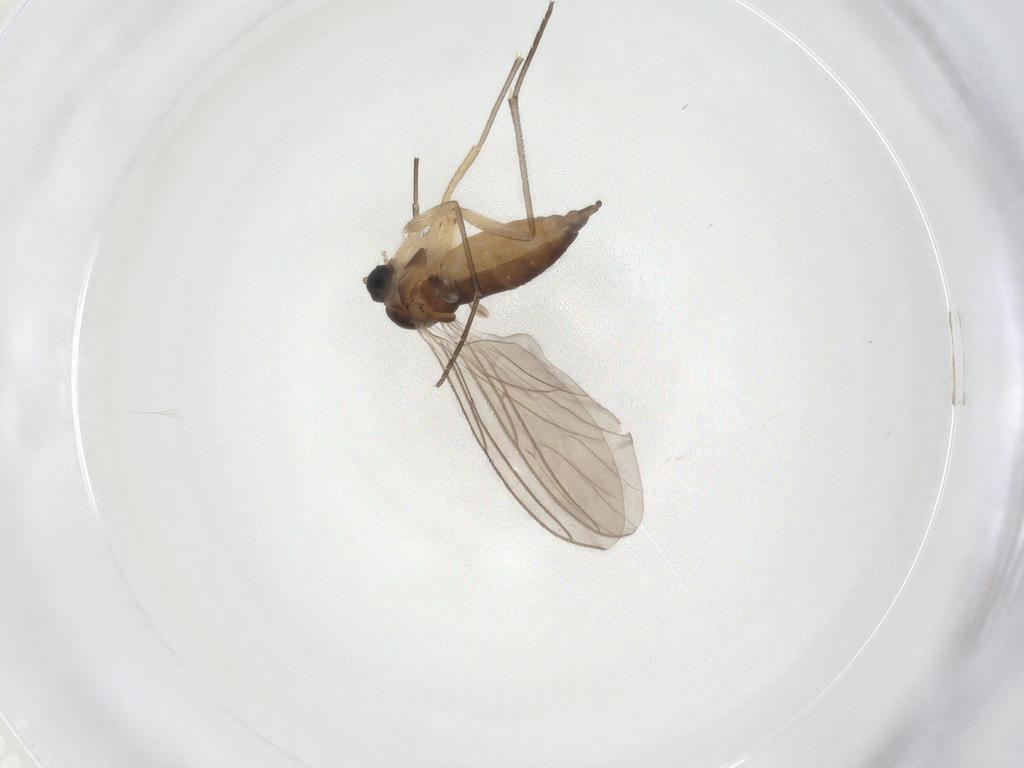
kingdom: Animalia
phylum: Arthropoda
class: Insecta
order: Diptera
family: Sciaridae
